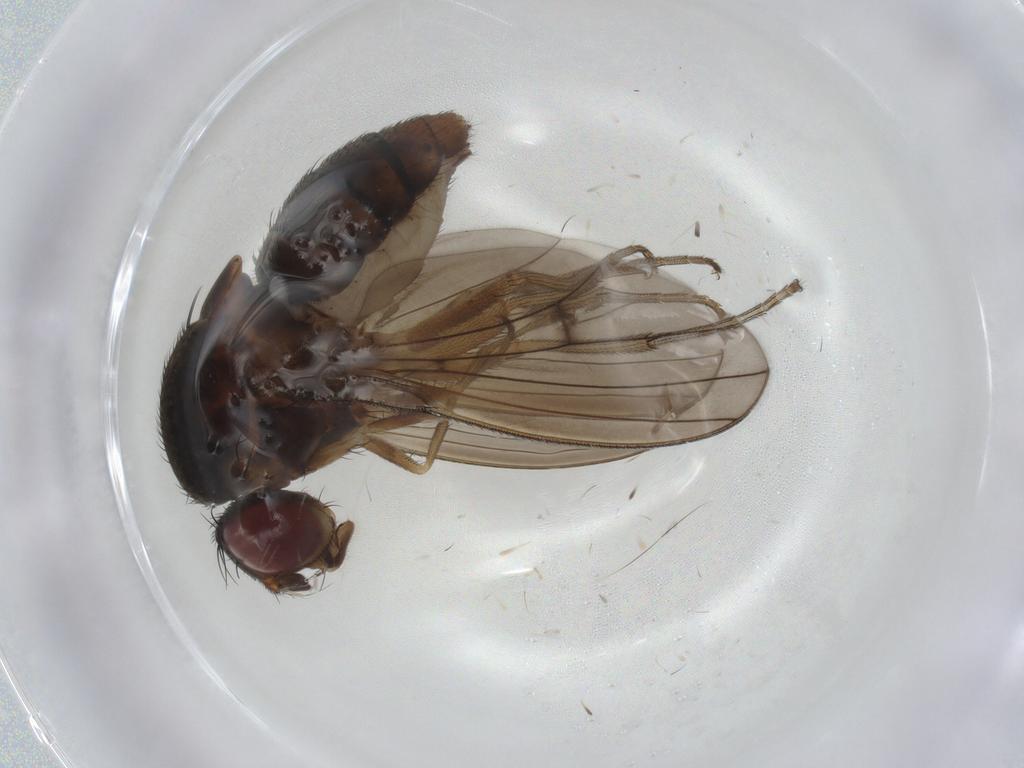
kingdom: Animalia
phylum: Arthropoda
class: Insecta
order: Diptera
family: Curtonotidae
